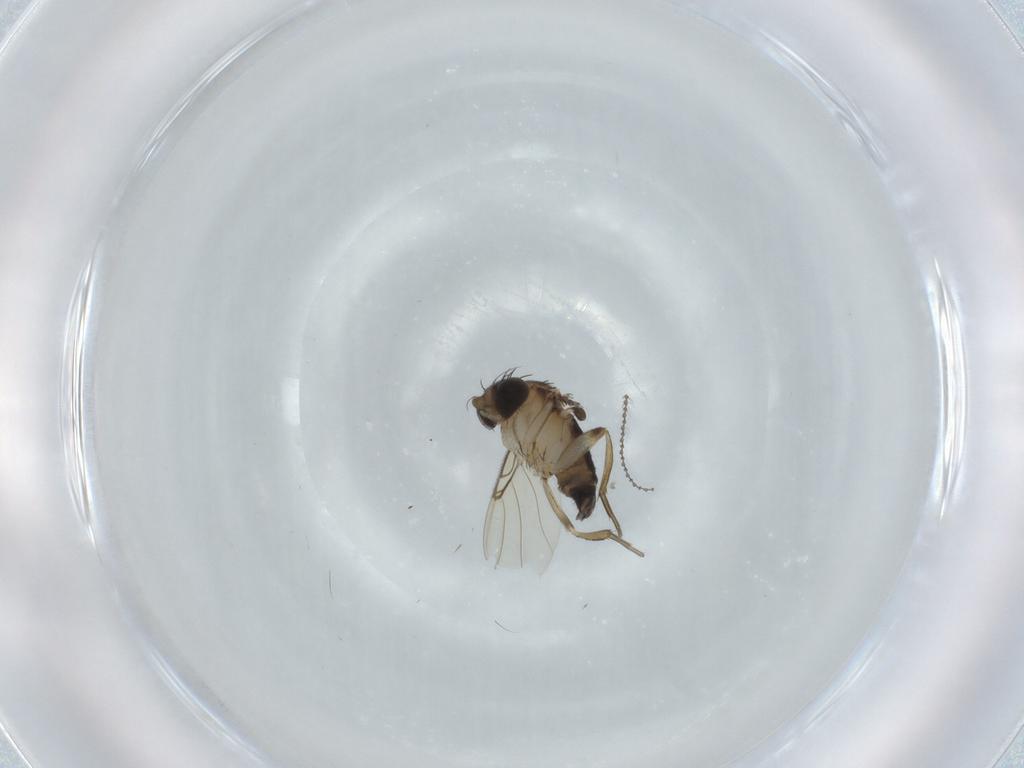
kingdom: Animalia
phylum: Arthropoda
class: Insecta
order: Diptera
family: Phoridae
